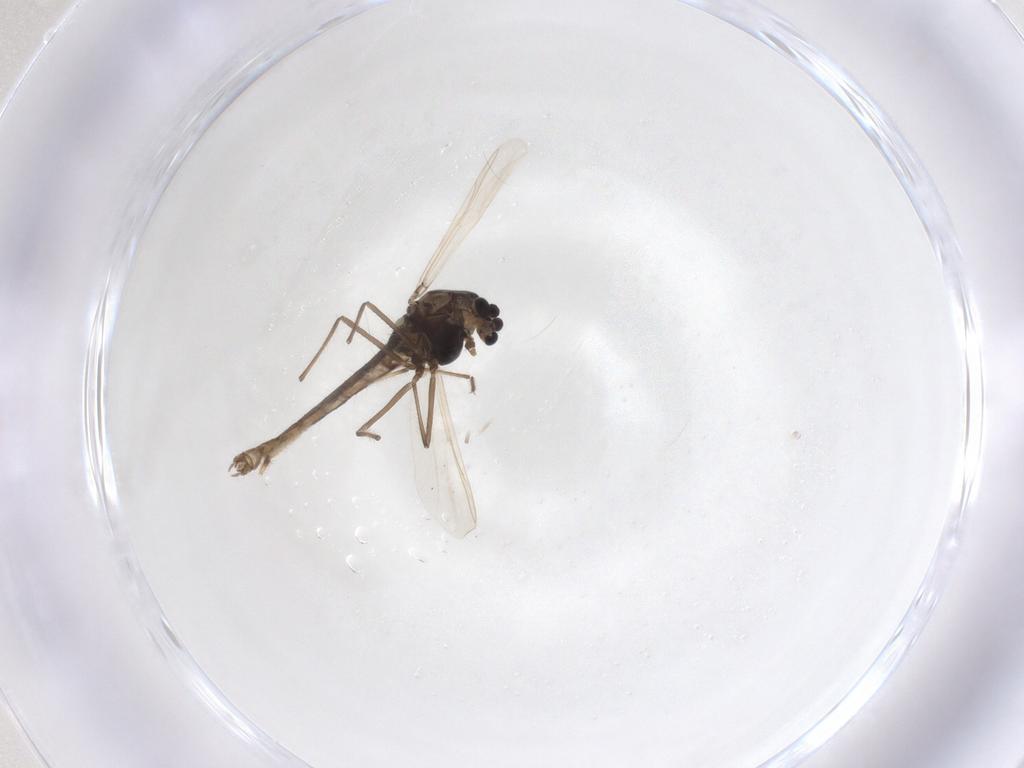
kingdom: Animalia
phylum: Arthropoda
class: Insecta
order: Diptera
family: Chironomidae
